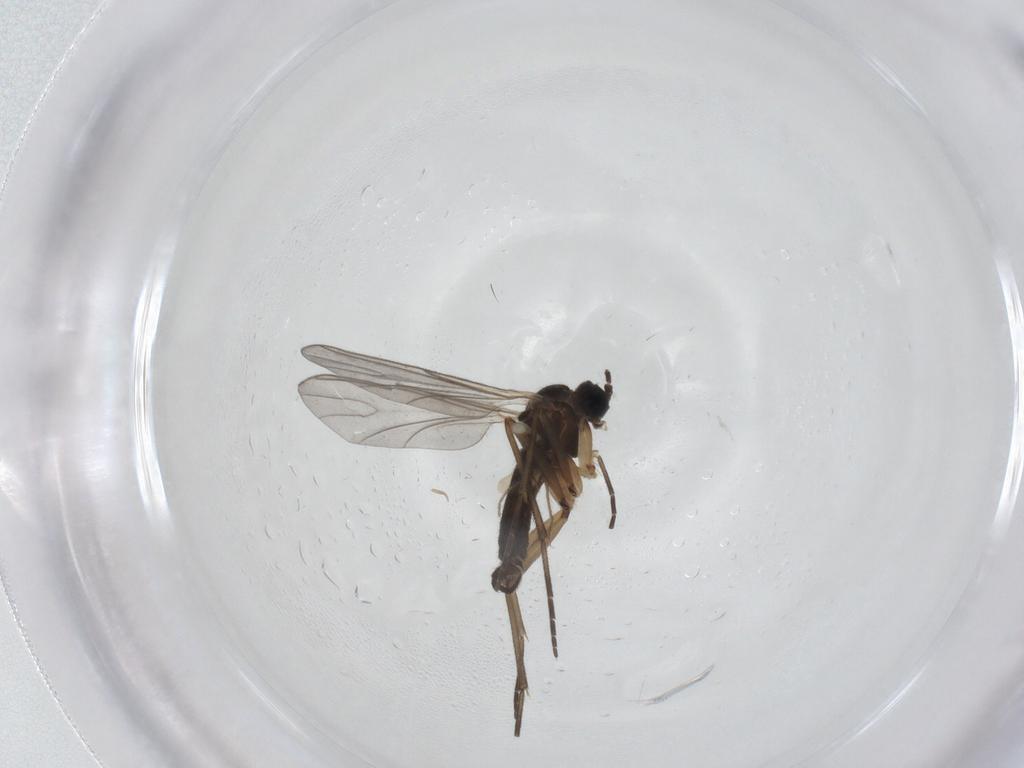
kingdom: Animalia
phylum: Arthropoda
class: Insecta
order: Diptera
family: Sciaridae
